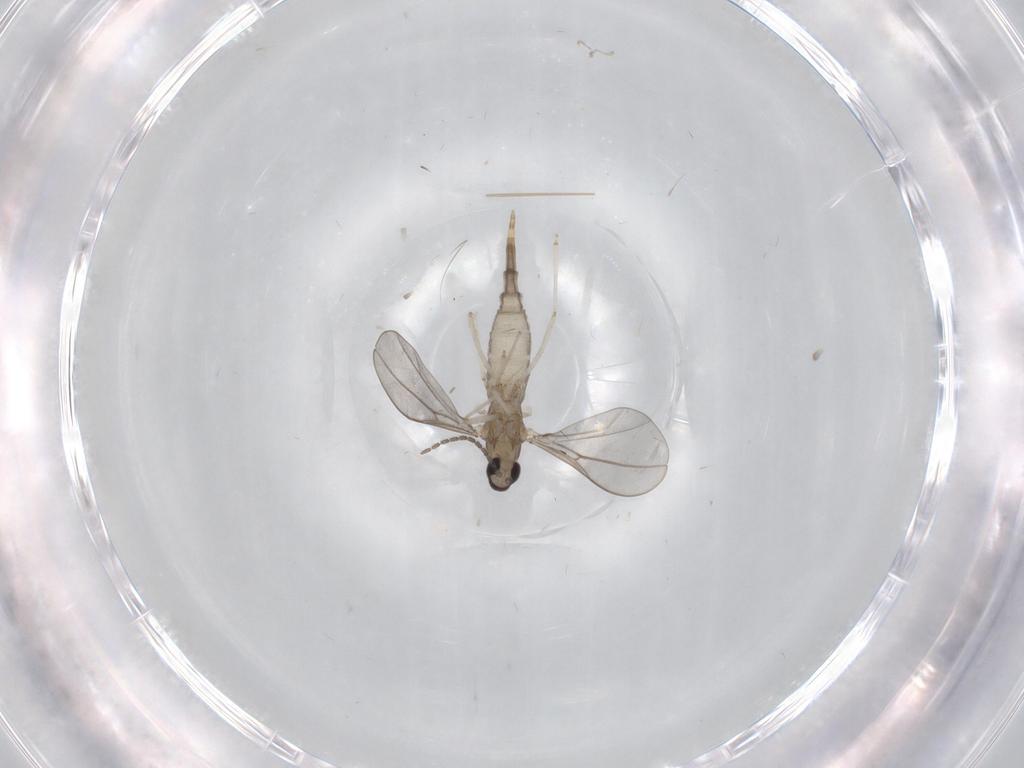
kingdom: Animalia
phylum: Arthropoda
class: Insecta
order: Diptera
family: Cecidomyiidae
